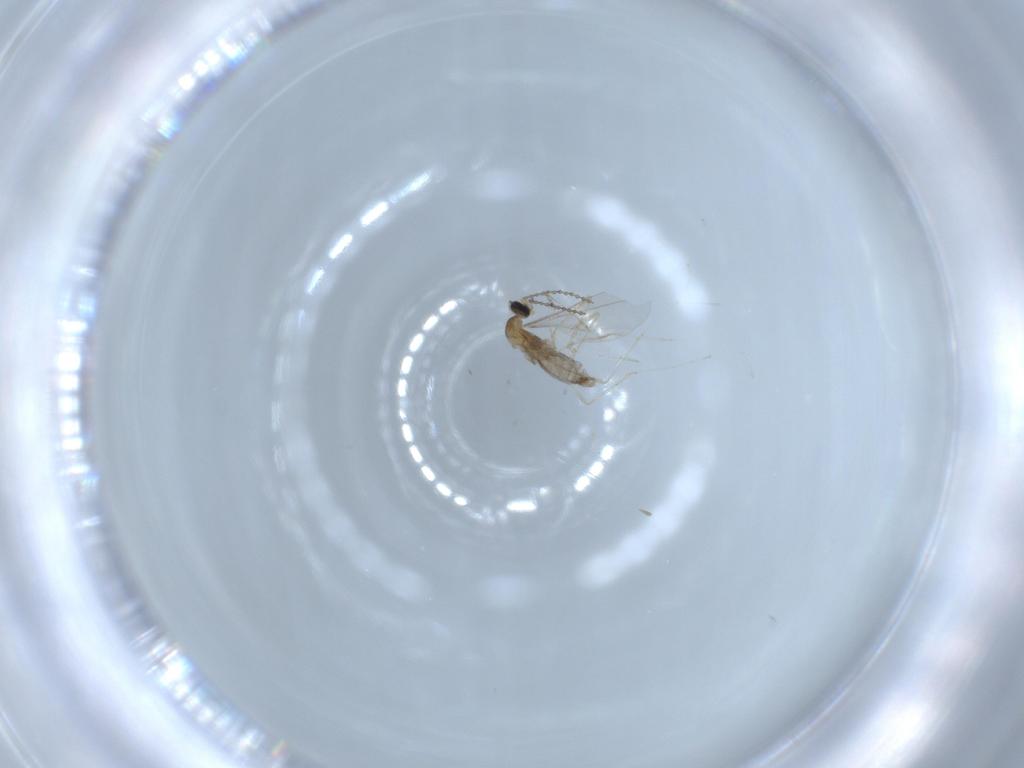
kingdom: Animalia
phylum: Arthropoda
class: Insecta
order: Diptera
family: Cecidomyiidae
